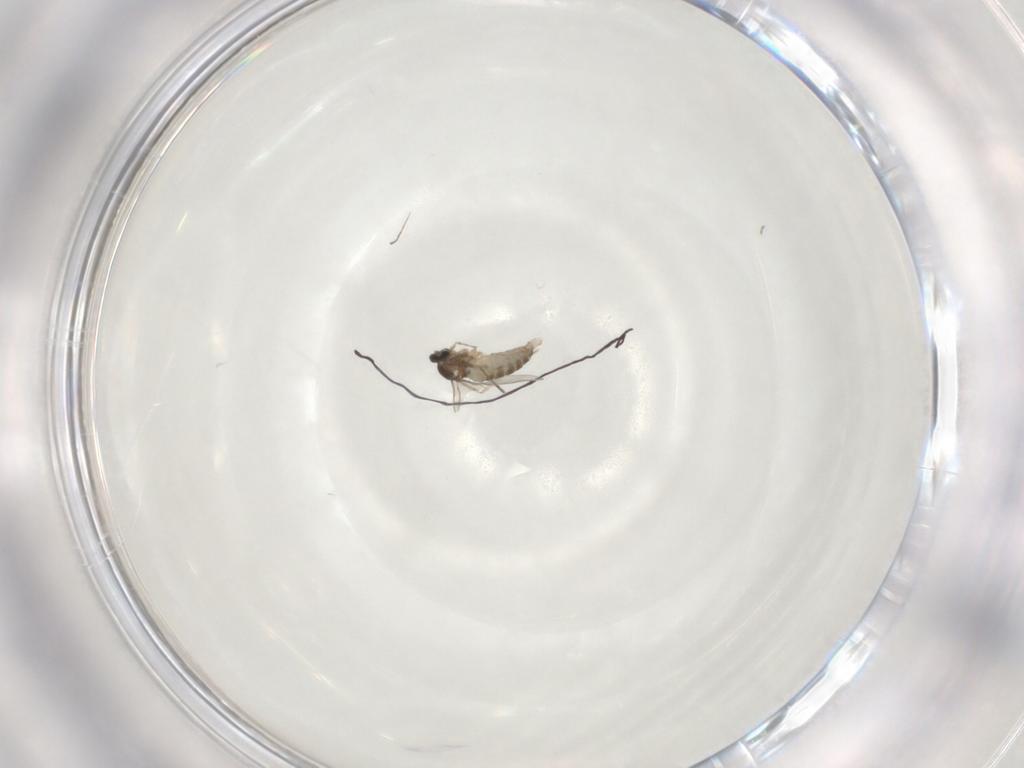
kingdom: Animalia
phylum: Arthropoda
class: Insecta
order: Diptera
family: Cecidomyiidae
